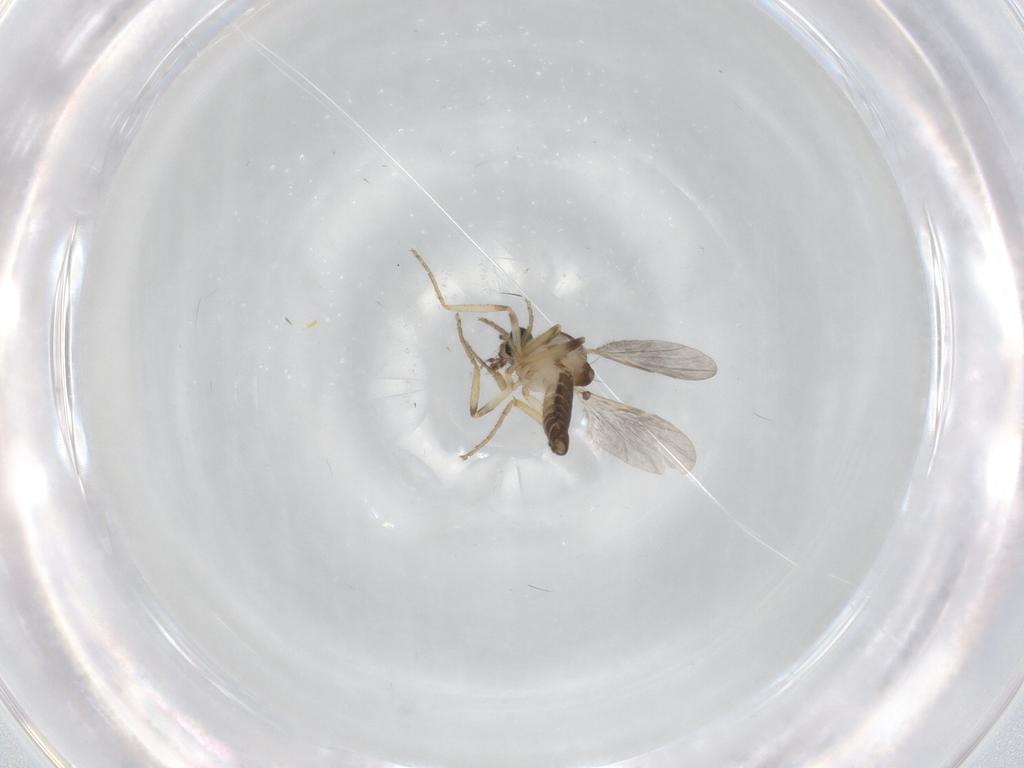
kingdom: Animalia
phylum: Arthropoda
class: Insecta
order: Diptera
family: Ceratopogonidae
